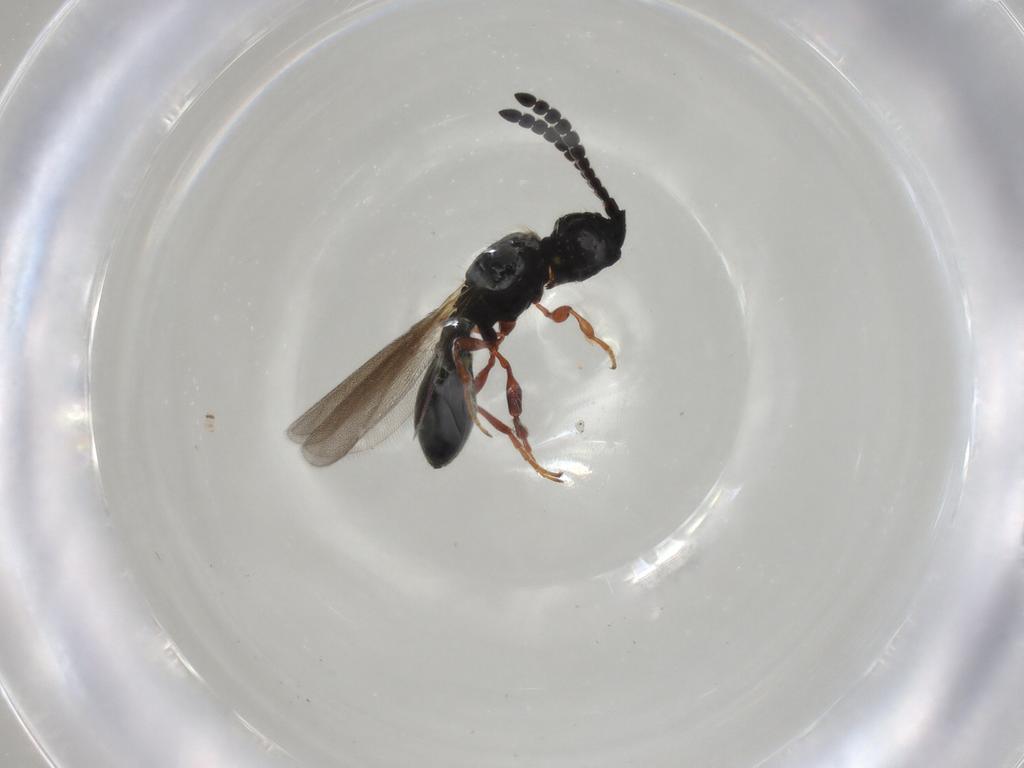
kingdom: Animalia
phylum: Arthropoda
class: Insecta
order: Hymenoptera
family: Diapriidae
